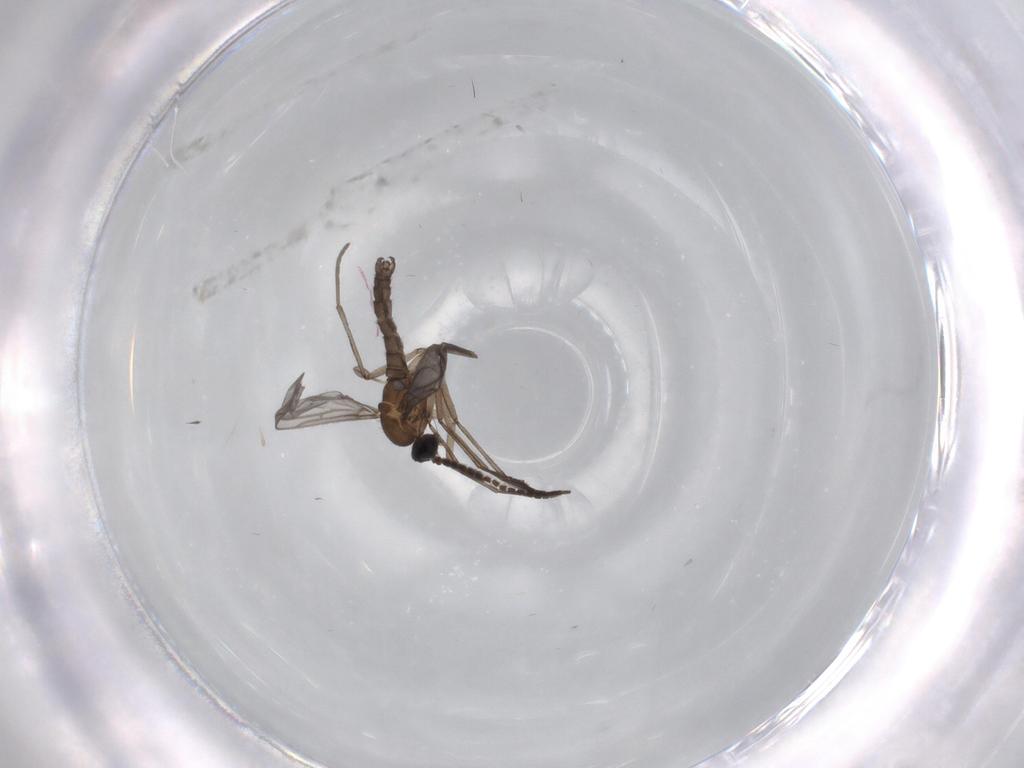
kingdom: Animalia
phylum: Arthropoda
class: Insecta
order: Diptera
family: Chironomidae
